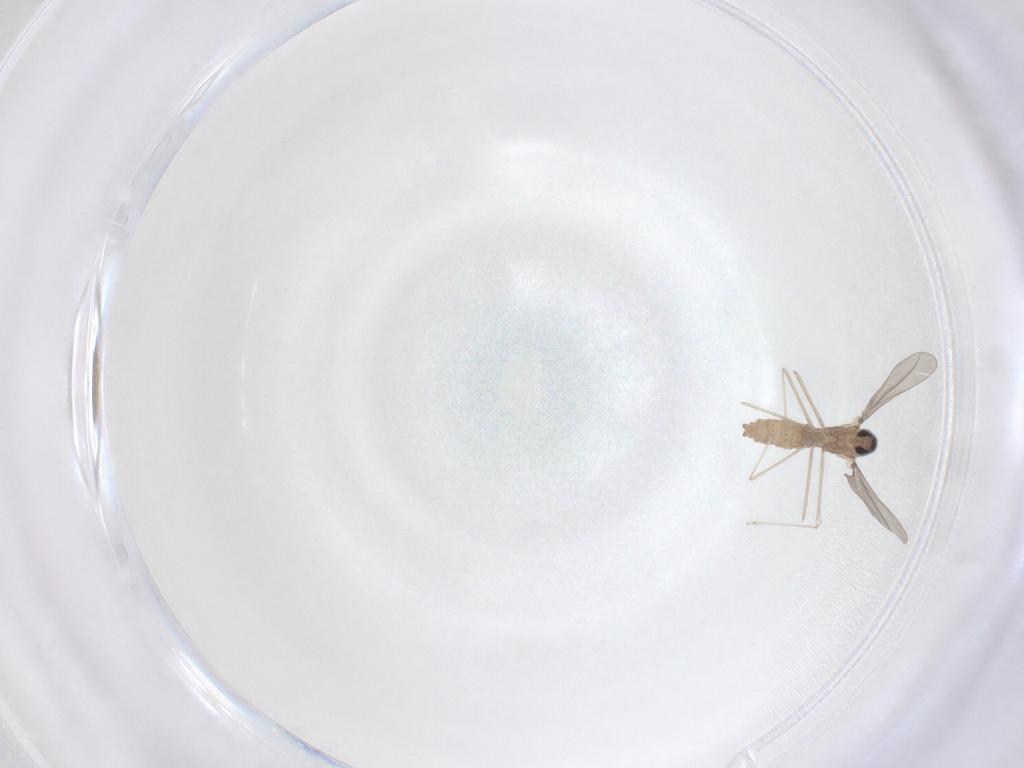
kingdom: Animalia
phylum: Arthropoda
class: Insecta
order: Diptera
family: Cecidomyiidae
